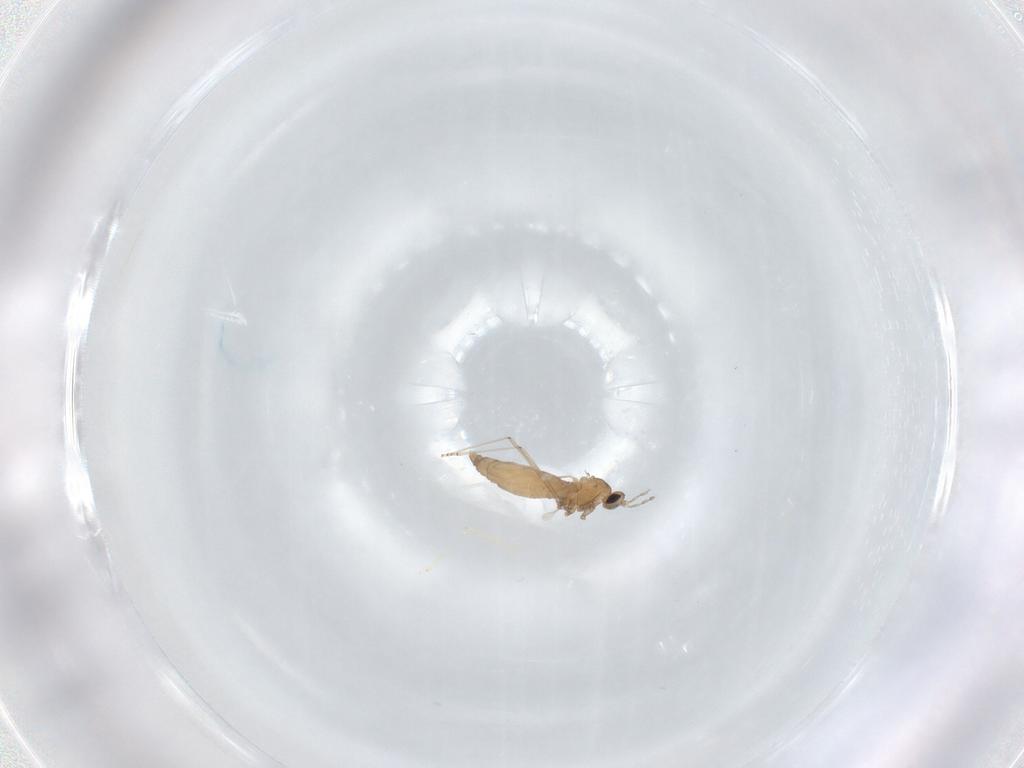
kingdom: Animalia
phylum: Arthropoda
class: Insecta
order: Diptera
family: Cecidomyiidae
